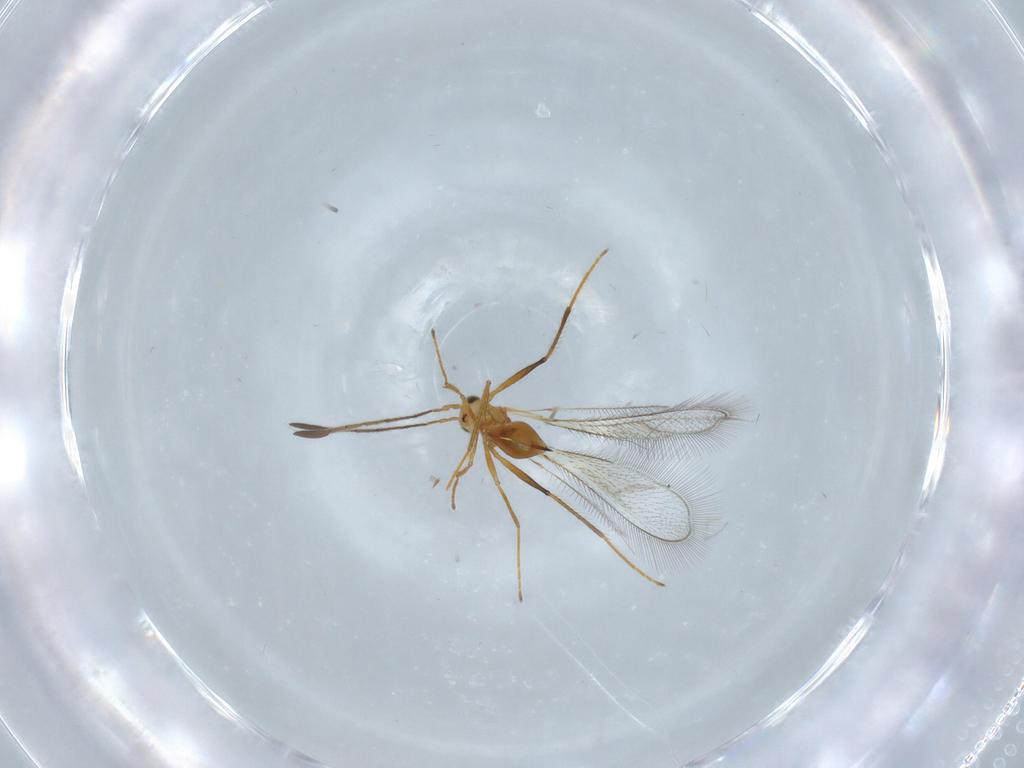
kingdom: Animalia
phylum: Arthropoda
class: Insecta
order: Hymenoptera
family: Mymaridae
